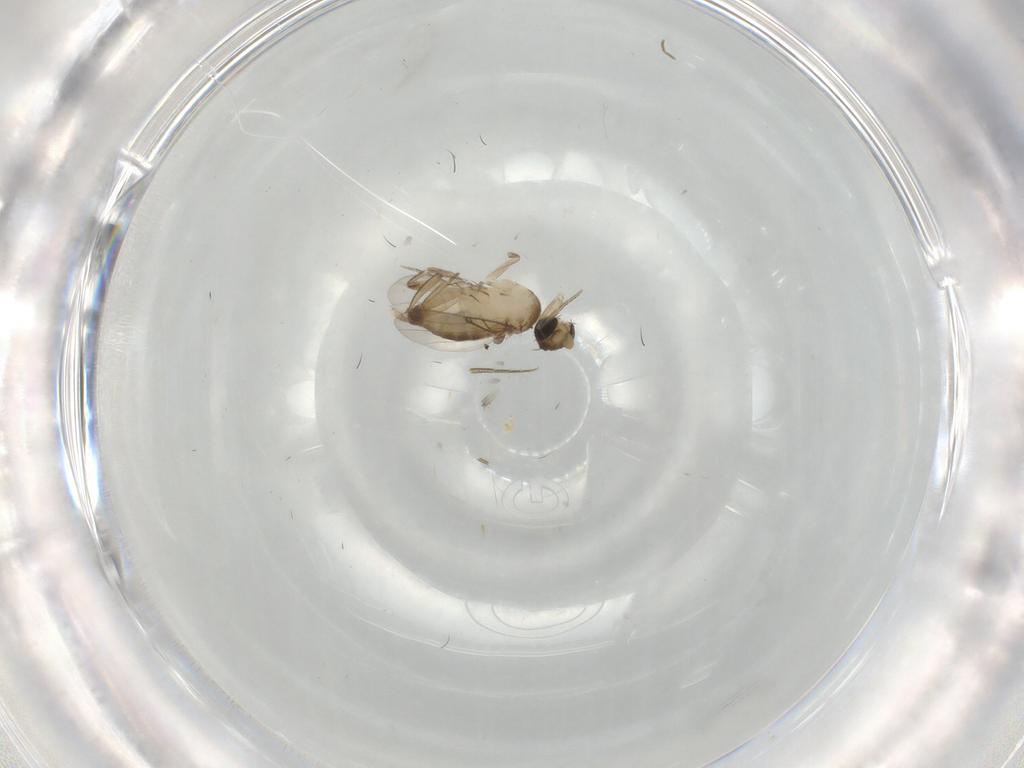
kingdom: Animalia
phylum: Arthropoda
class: Insecta
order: Diptera
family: Phoridae
